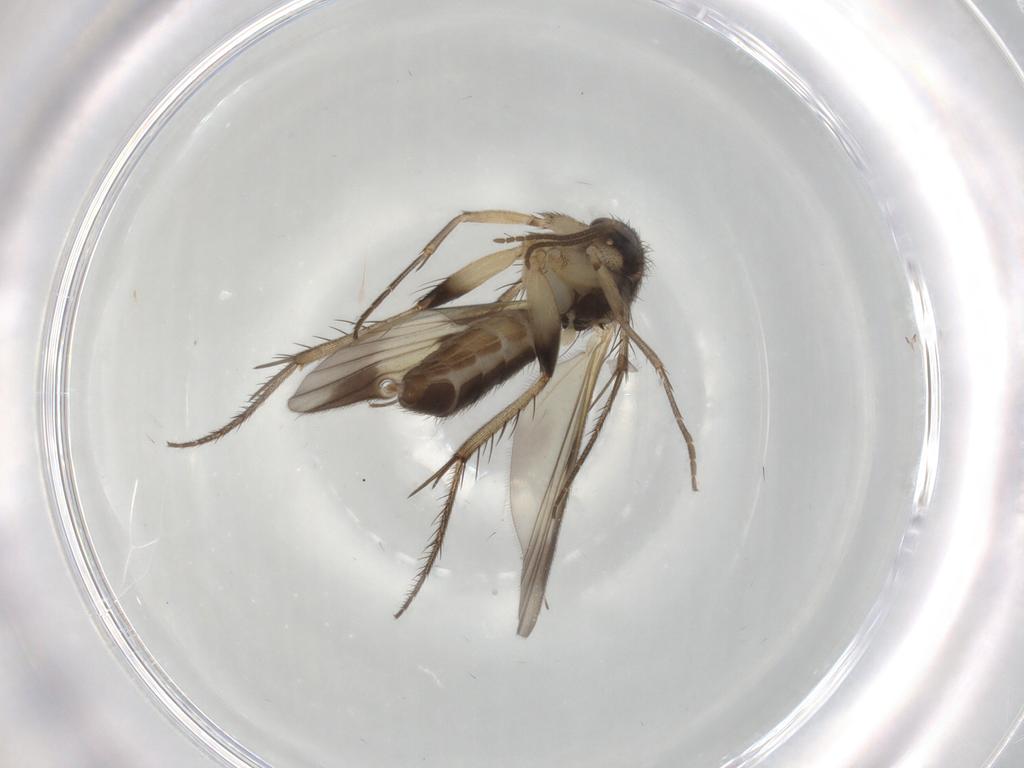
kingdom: Animalia
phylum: Arthropoda
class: Insecta
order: Diptera
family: Mycetophilidae
